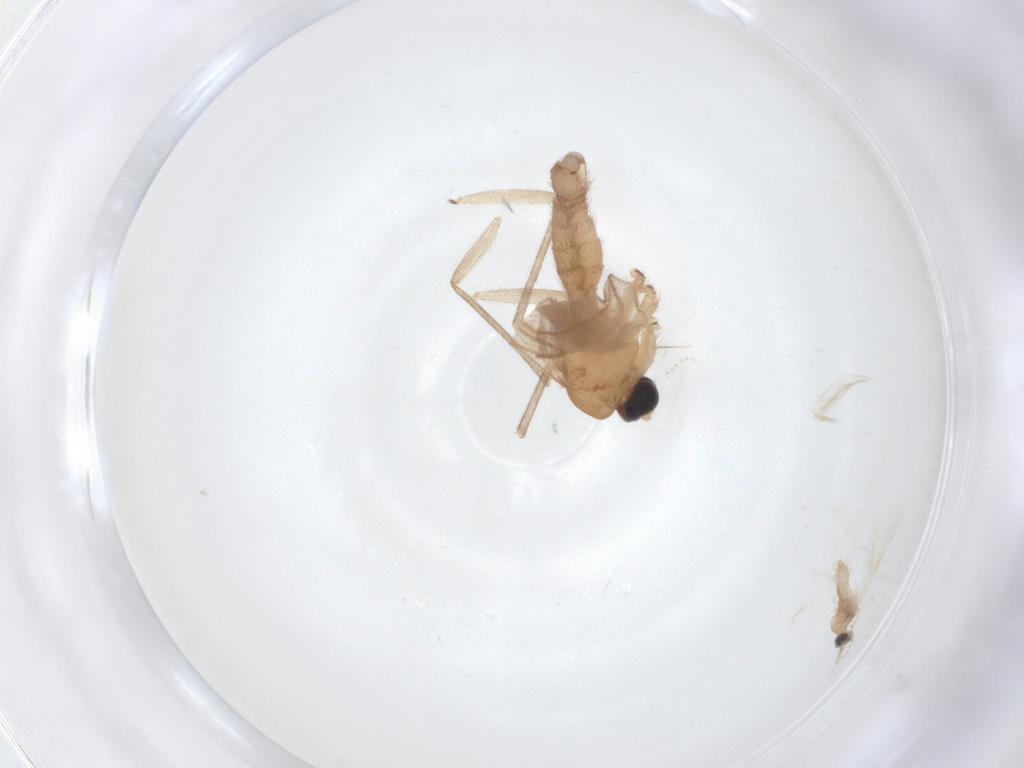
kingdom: Animalia
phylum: Arthropoda
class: Insecta
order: Diptera
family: Sciaridae
